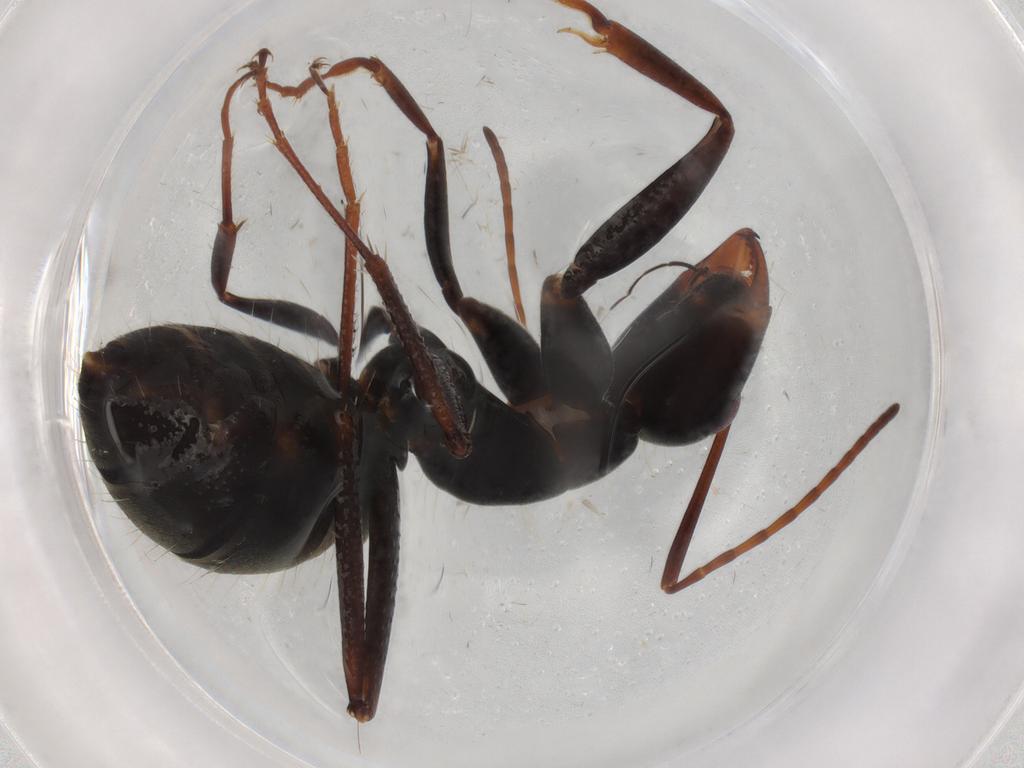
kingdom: Animalia
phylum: Arthropoda
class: Insecta
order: Hymenoptera
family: Formicidae
